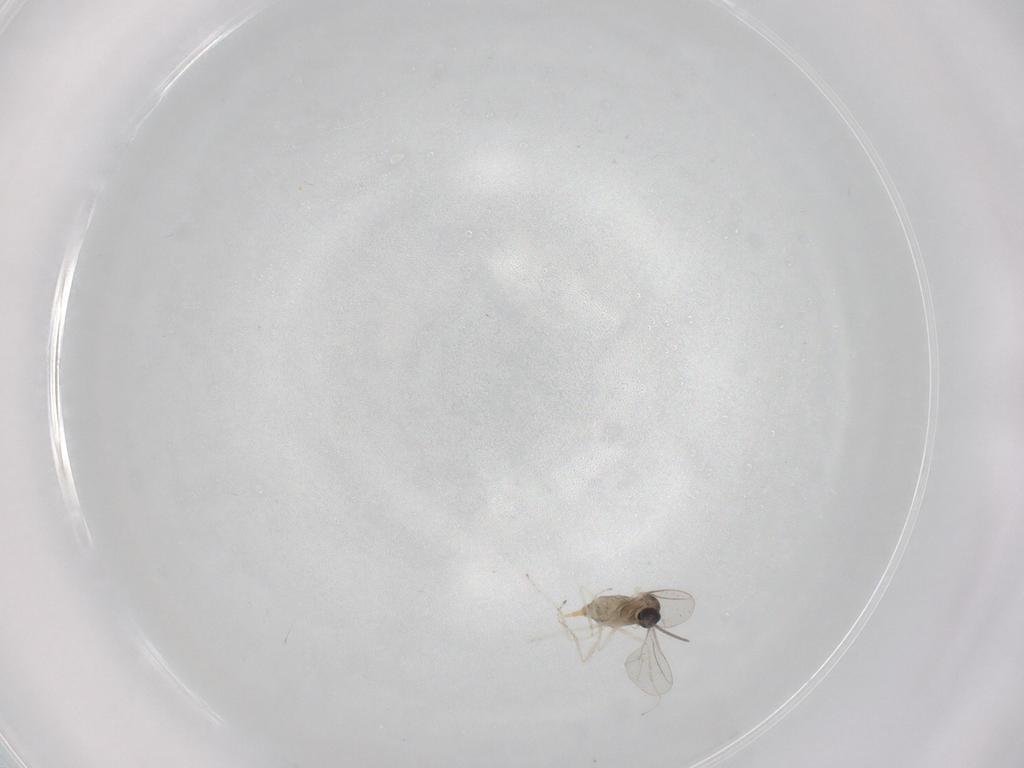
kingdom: Animalia
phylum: Arthropoda
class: Insecta
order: Diptera
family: Cecidomyiidae
